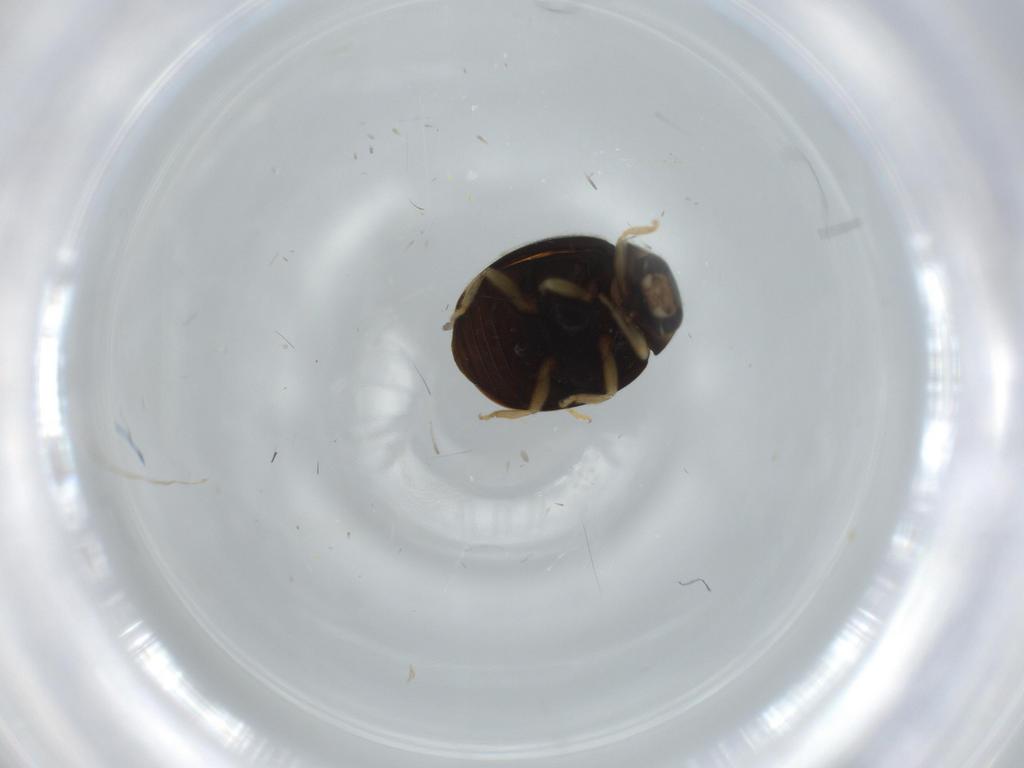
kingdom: Animalia
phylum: Arthropoda
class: Insecta
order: Coleoptera
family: Coccinellidae
